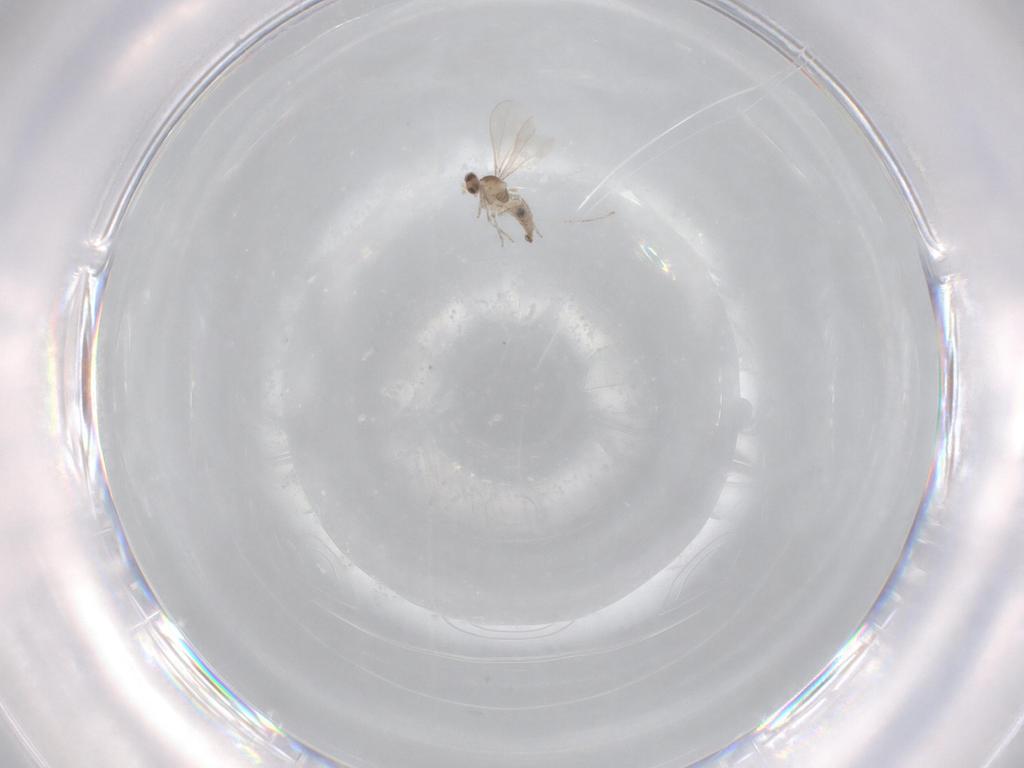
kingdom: Animalia
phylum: Arthropoda
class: Insecta
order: Diptera
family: Cecidomyiidae
